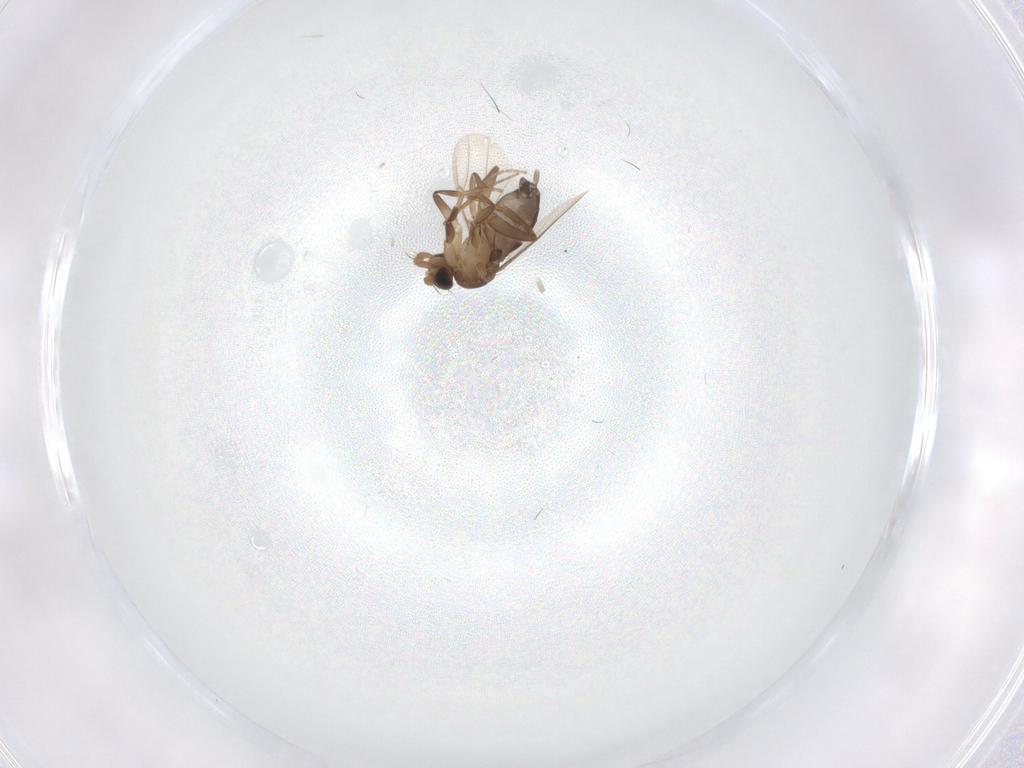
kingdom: Animalia
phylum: Arthropoda
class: Insecta
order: Diptera
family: Phoridae
